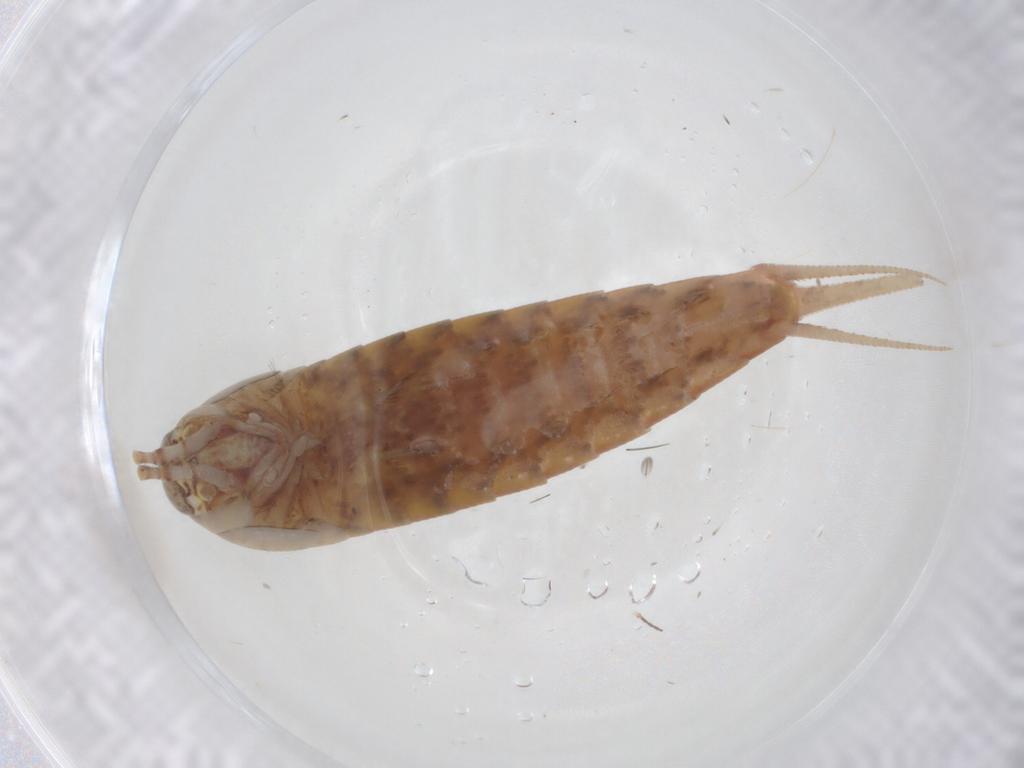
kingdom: Animalia
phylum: Arthropoda
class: Insecta
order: Diptera
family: Cecidomyiidae
